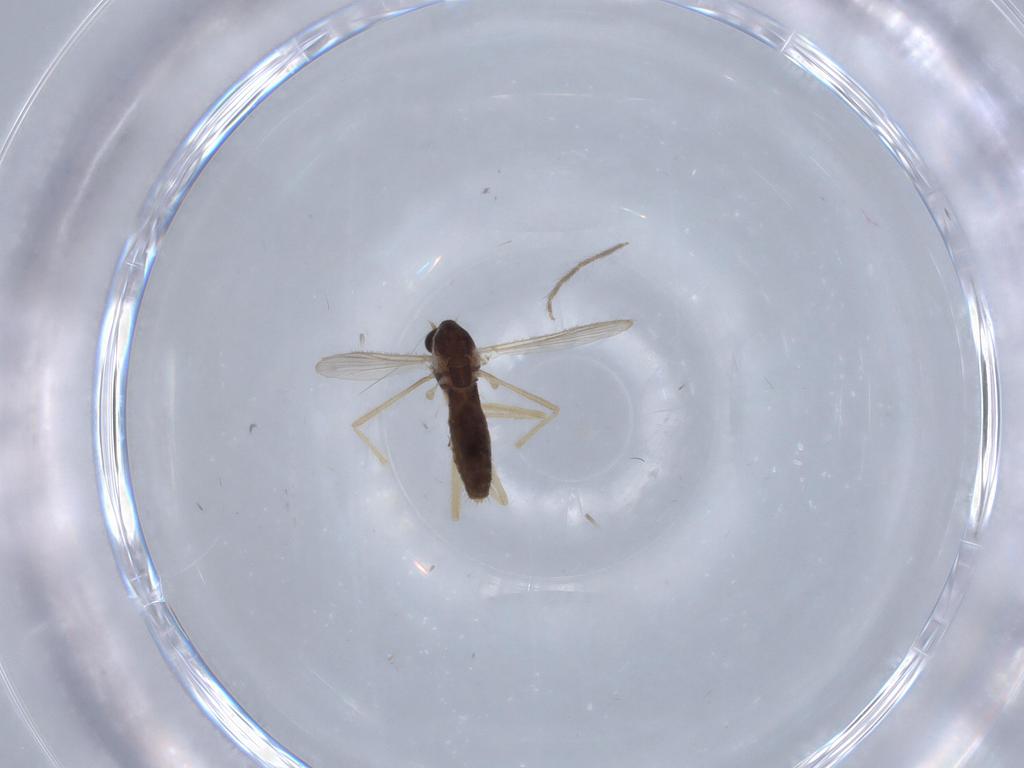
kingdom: Animalia
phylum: Arthropoda
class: Insecta
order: Diptera
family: Chironomidae
